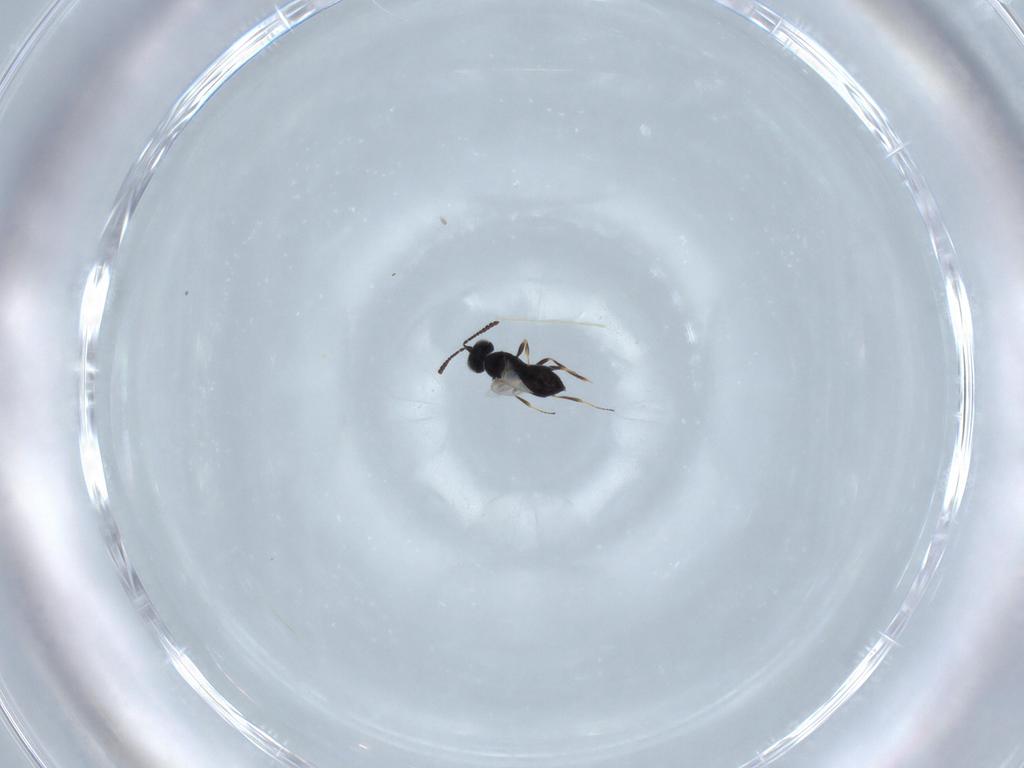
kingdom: Animalia
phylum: Arthropoda
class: Insecta
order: Hymenoptera
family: Scelionidae
